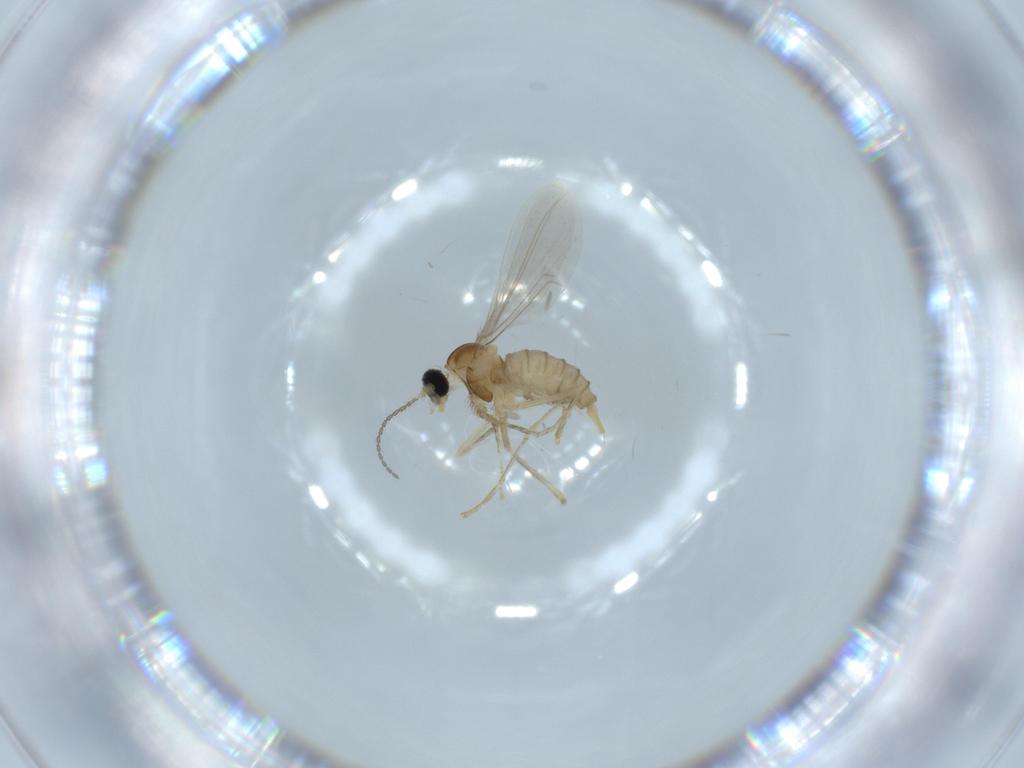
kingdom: Animalia
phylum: Arthropoda
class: Insecta
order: Diptera
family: Cecidomyiidae
